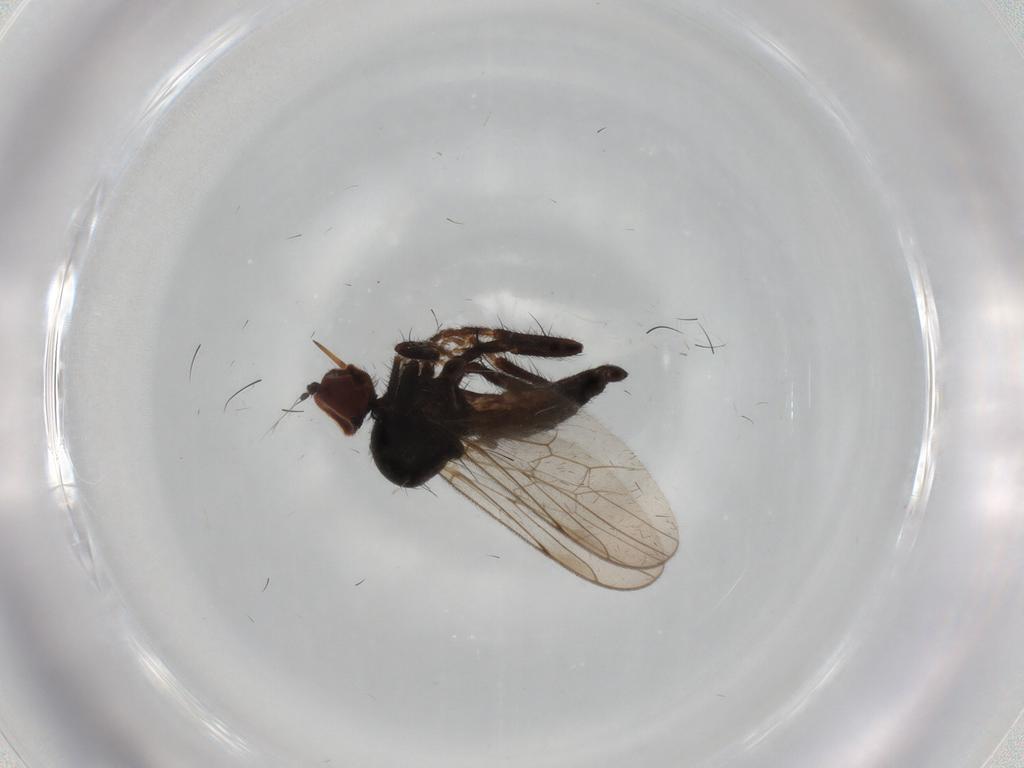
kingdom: Animalia
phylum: Arthropoda
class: Insecta
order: Diptera
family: Hybotidae
